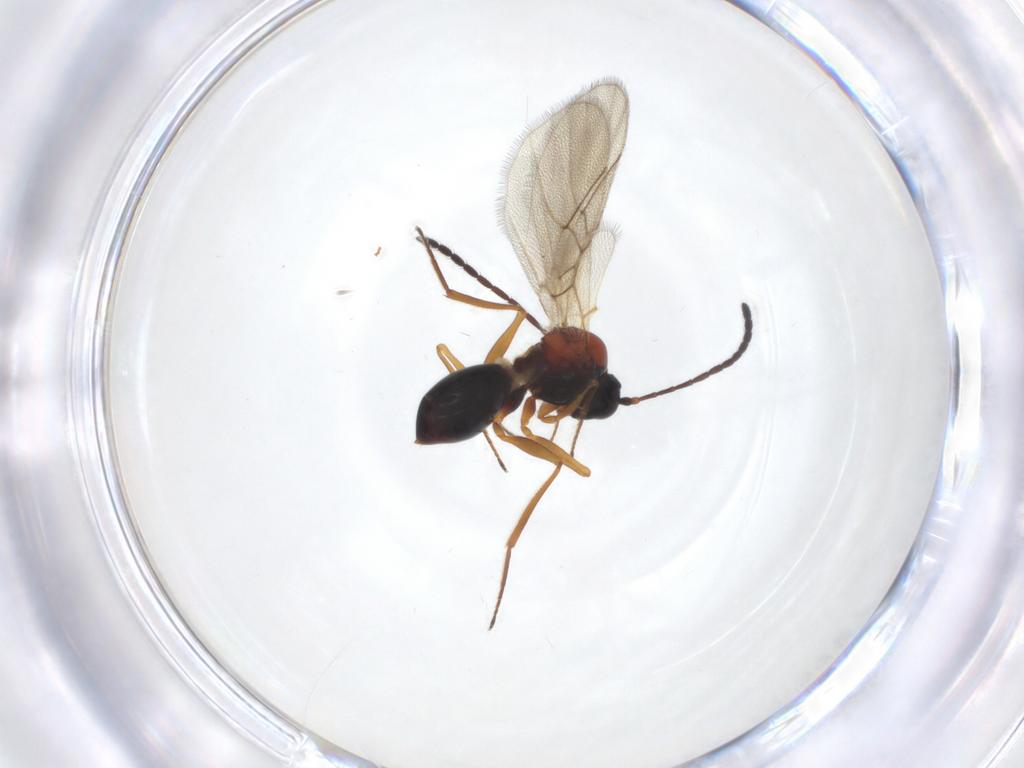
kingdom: Animalia
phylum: Arthropoda
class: Insecta
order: Hymenoptera
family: Figitidae
